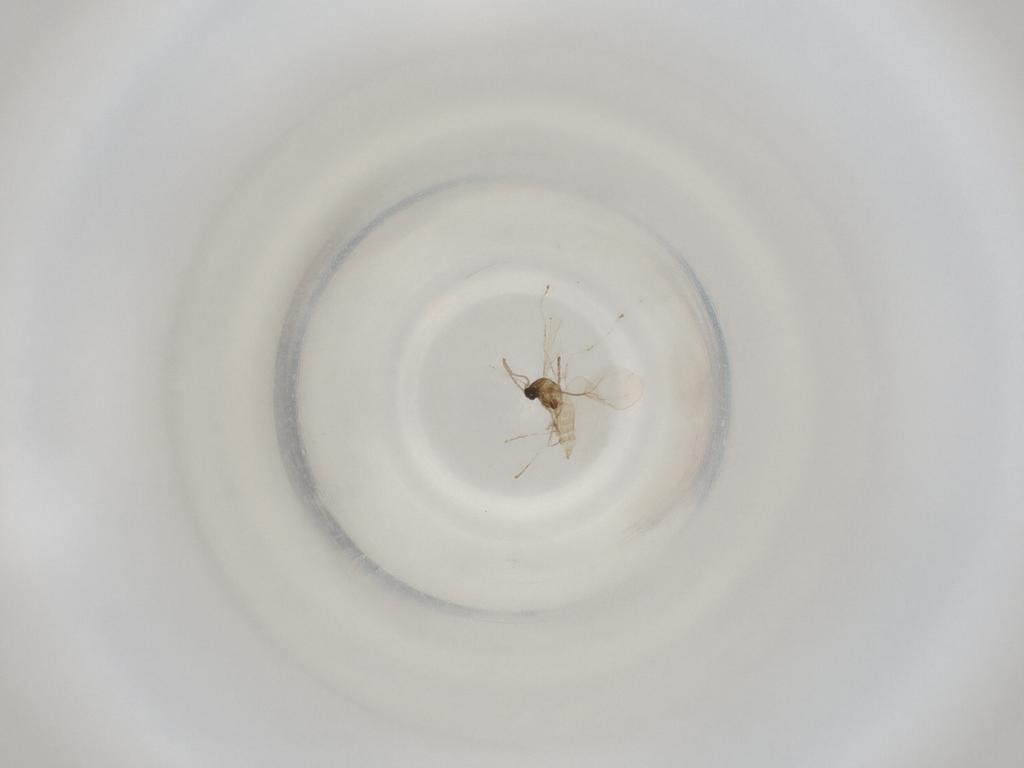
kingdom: Animalia
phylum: Arthropoda
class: Insecta
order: Diptera
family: Cecidomyiidae
